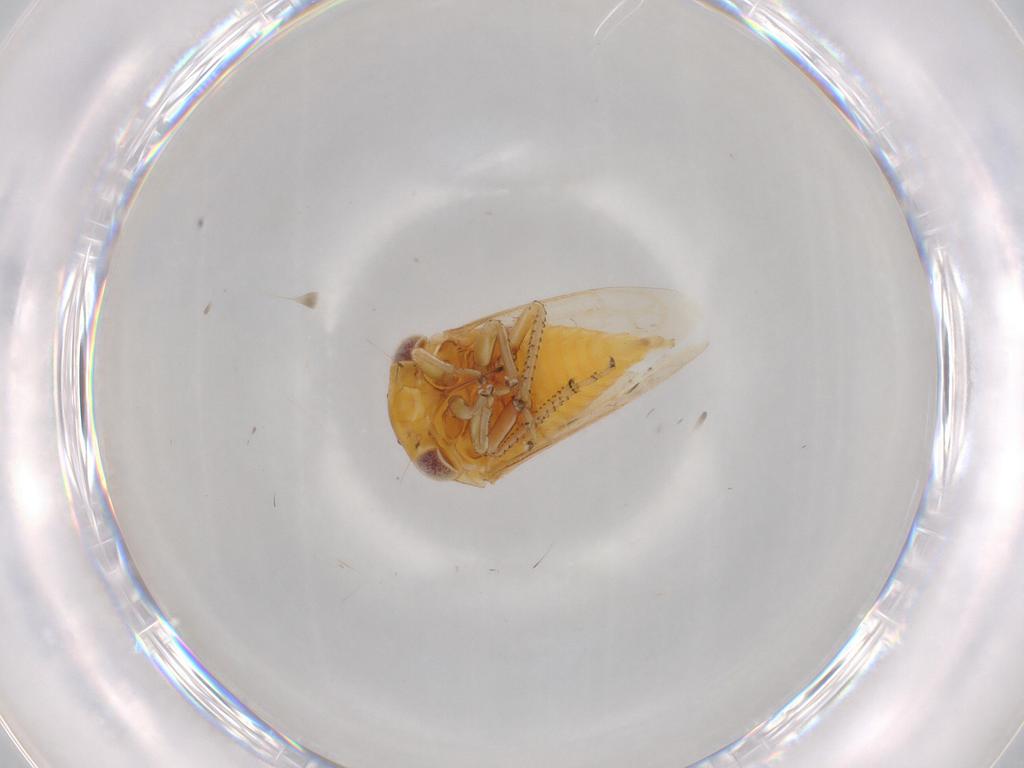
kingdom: Animalia
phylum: Arthropoda
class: Insecta
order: Hemiptera
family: Membracidae
